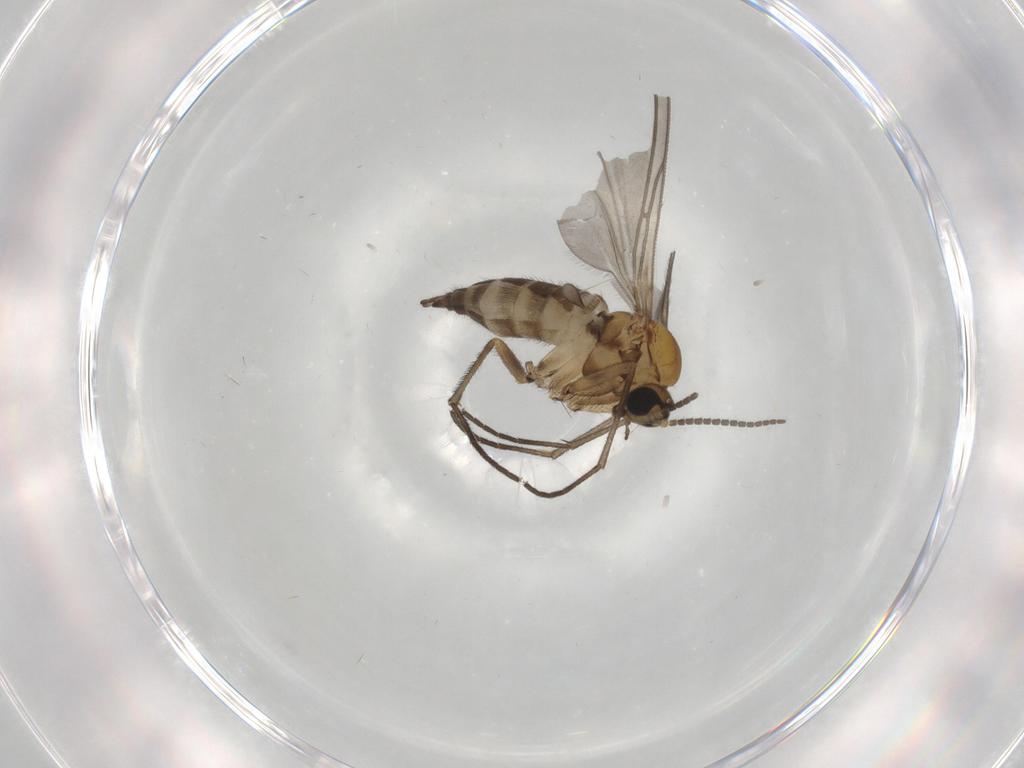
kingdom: Animalia
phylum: Arthropoda
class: Insecta
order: Diptera
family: Sciaridae
